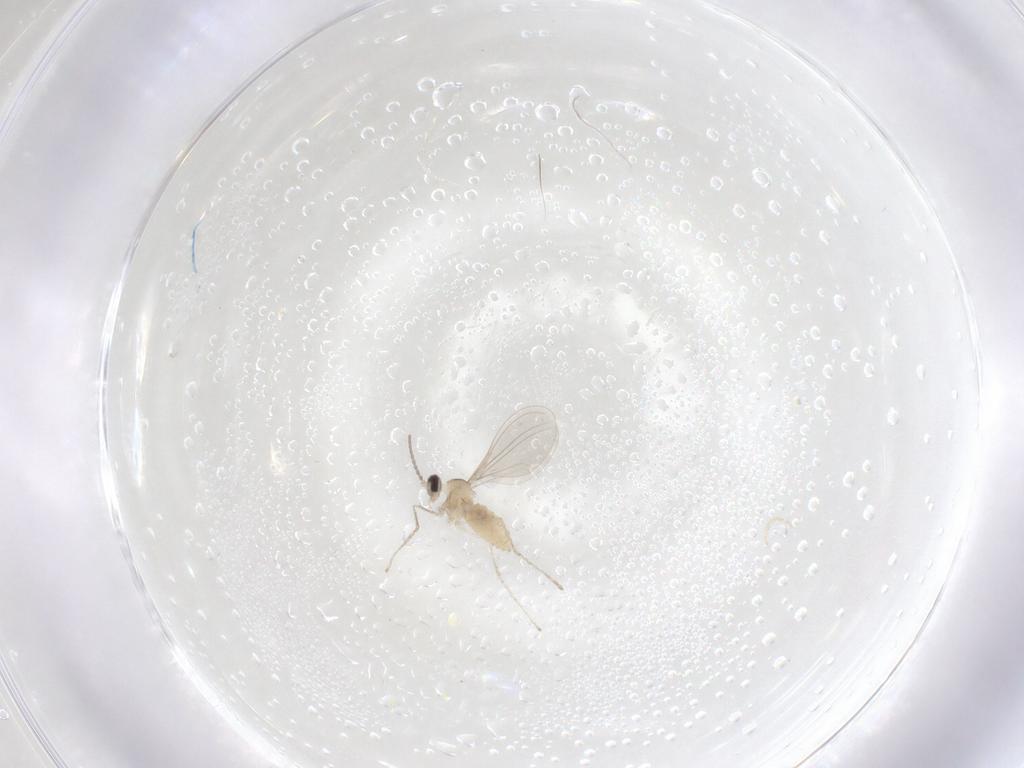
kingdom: Animalia
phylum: Arthropoda
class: Insecta
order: Diptera
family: Cecidomyiidae
